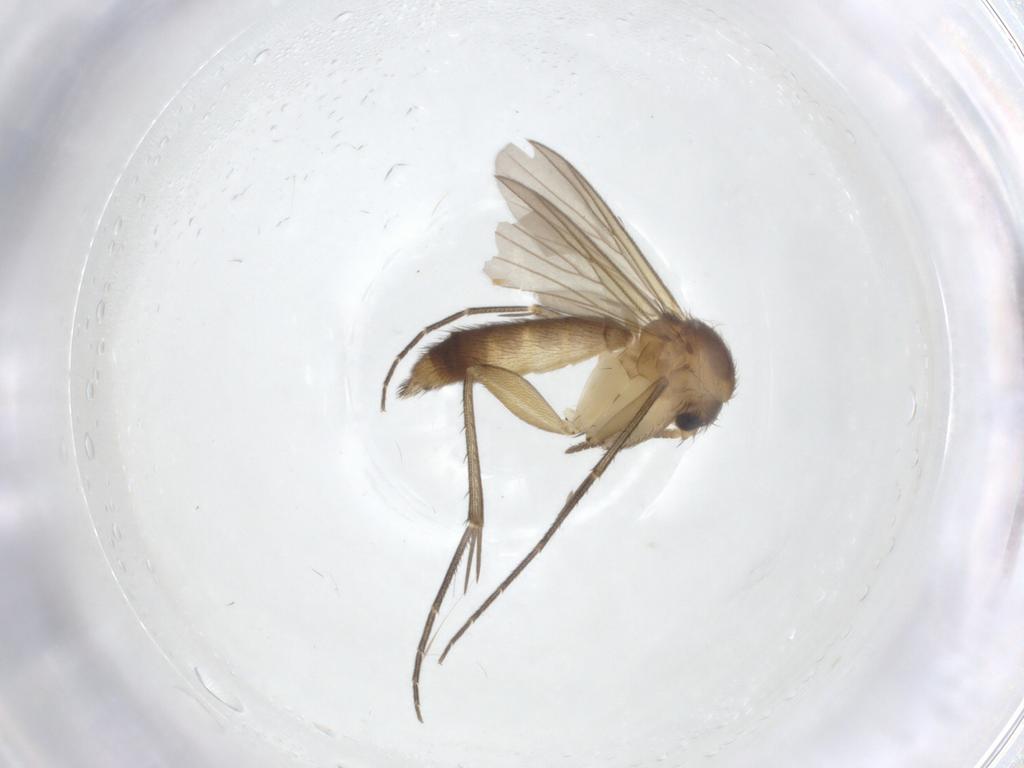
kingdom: Animalia
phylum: Arthropoda
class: Insecta
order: Diptera
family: Mycetophilidae
